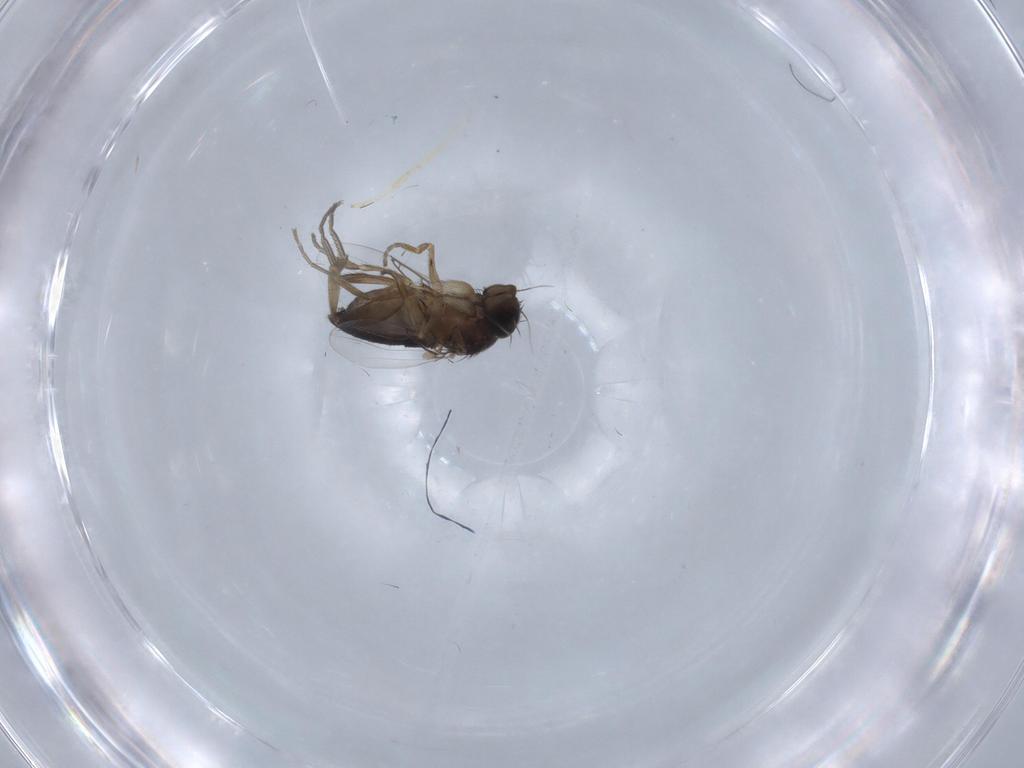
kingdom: Animalia
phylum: Arthropoda
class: Insecta
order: Diptera
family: Phoridae
